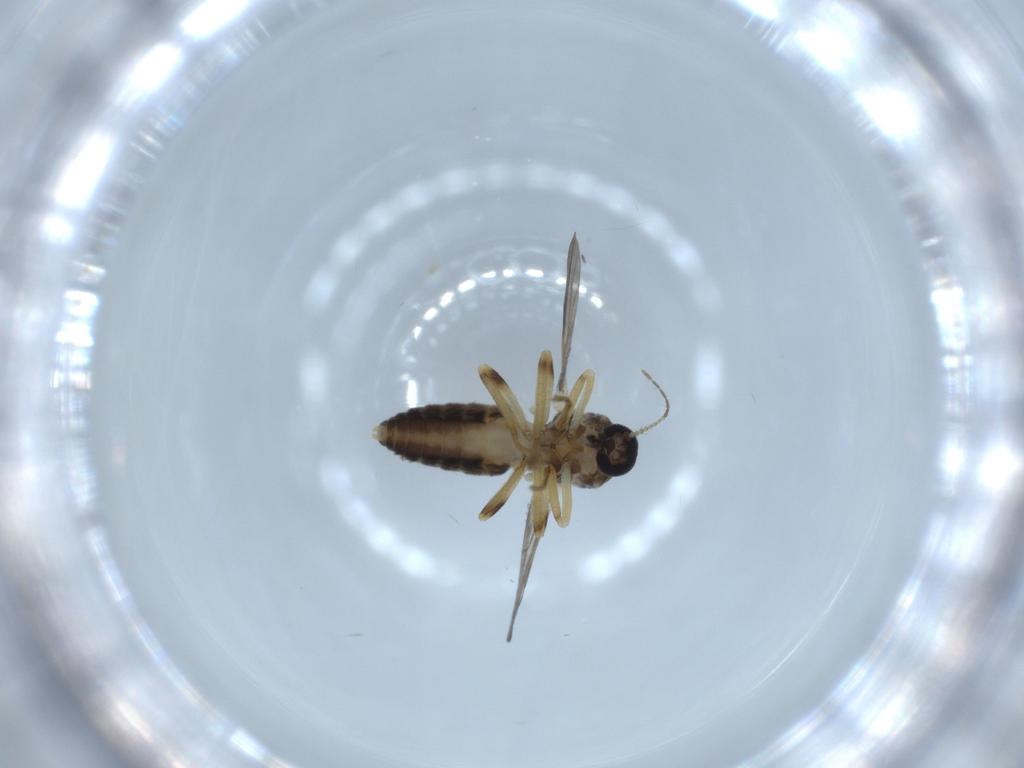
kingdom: Animalia
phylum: Arthropoda
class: Insecta
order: Diptera
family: Ceratopogonidae
